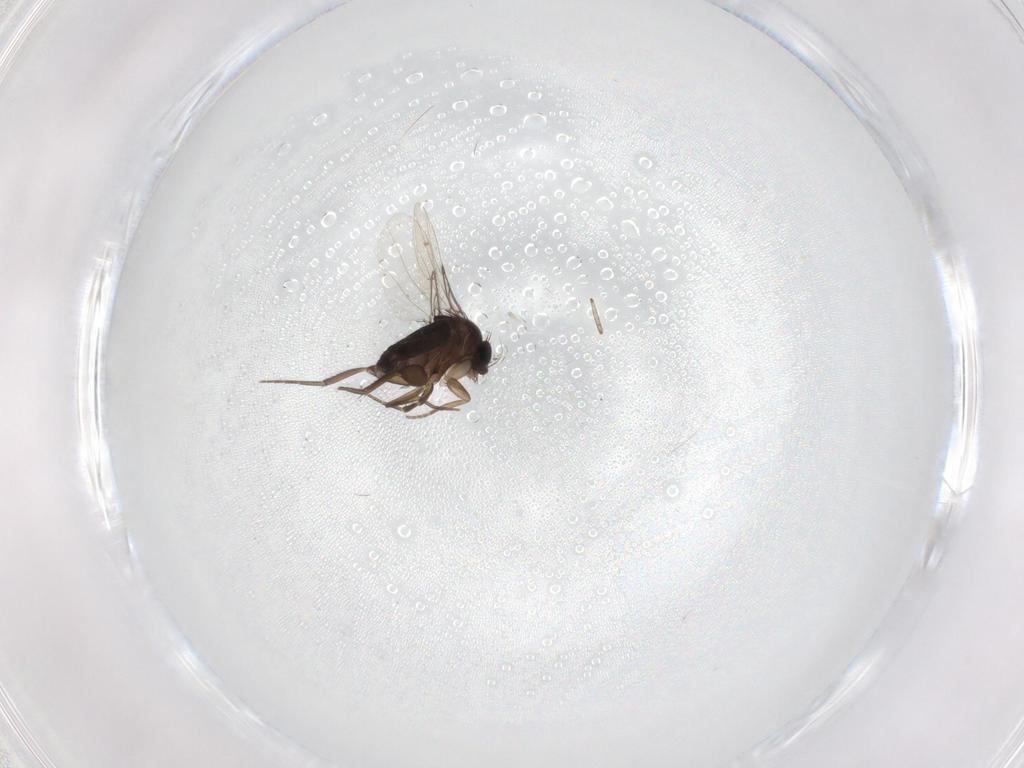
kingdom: Animalia
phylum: Arthropoda
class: Insecta
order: Diptera
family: Phoridae
